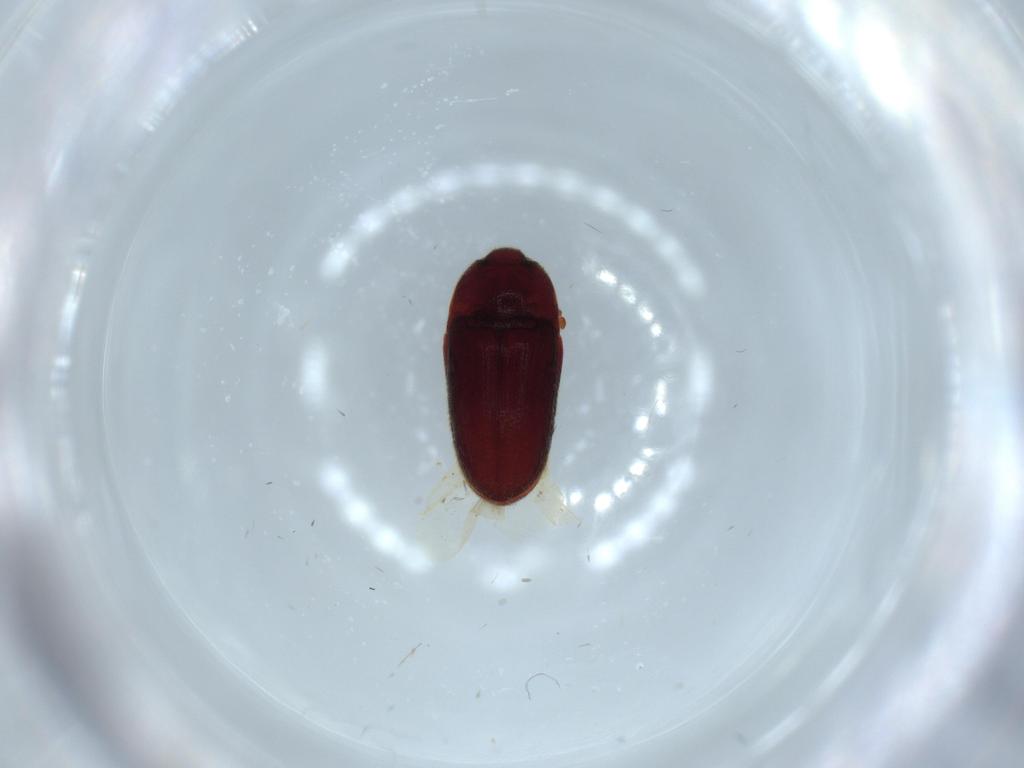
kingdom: Animalia
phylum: Arthropoda
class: Insecta
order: Coleoptera
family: Throscidae
